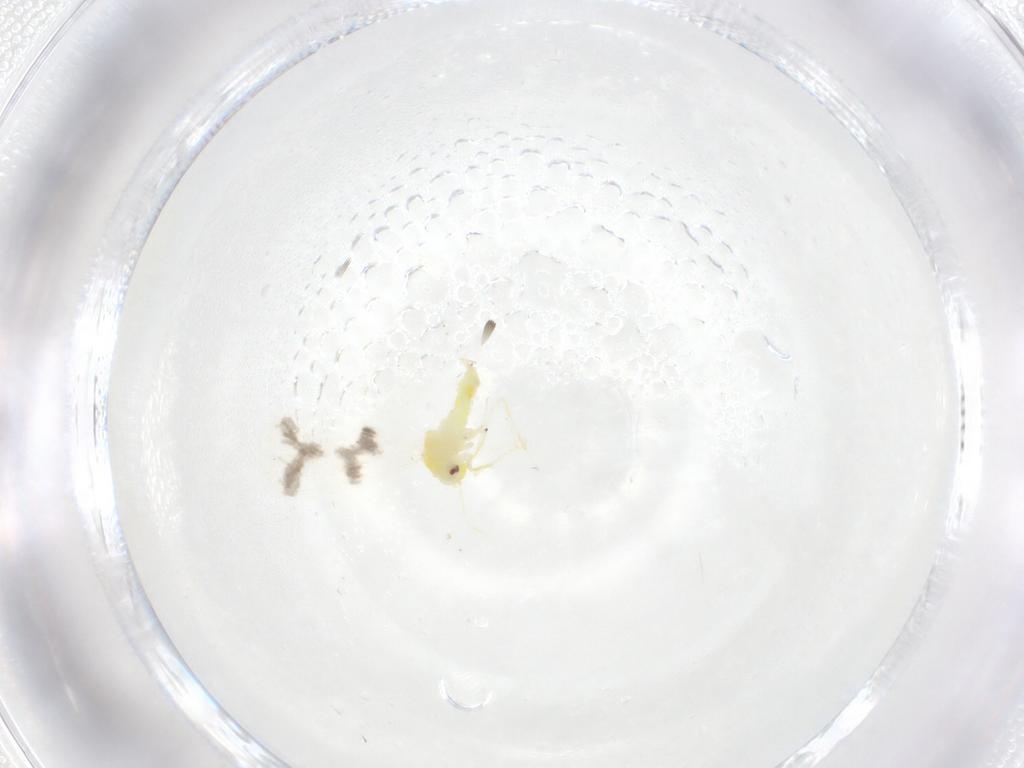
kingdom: Animalia
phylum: Arthropoda
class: Insecta
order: Hemiptera
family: Aleyrodidae
